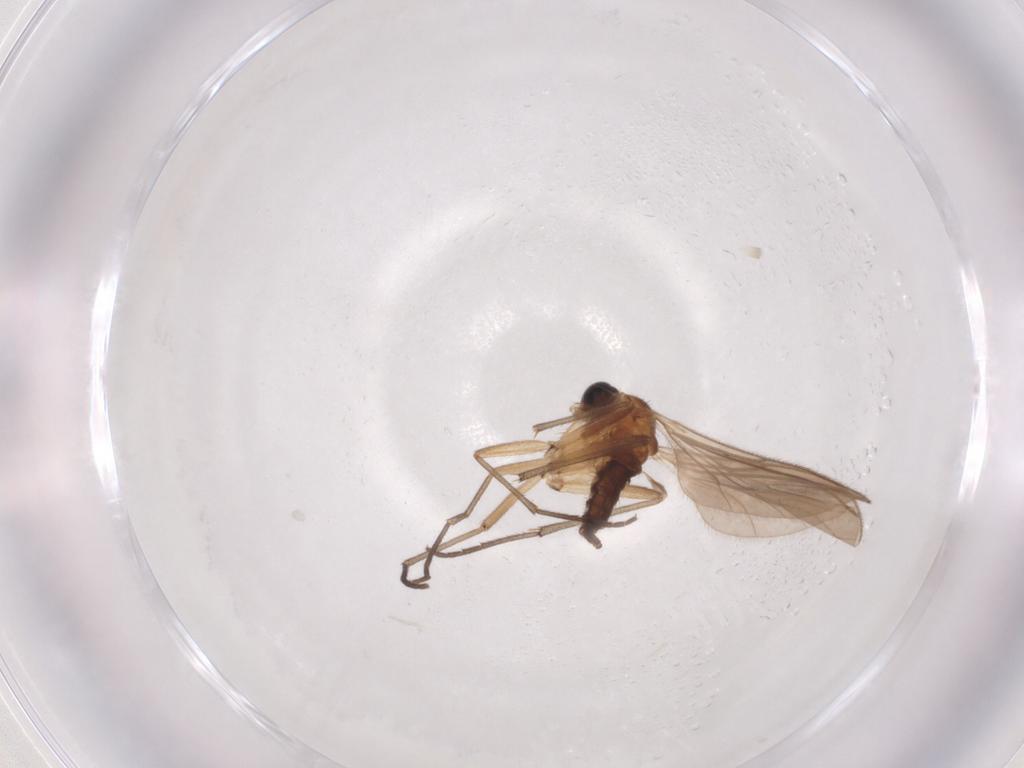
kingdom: Animalia
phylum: Arthropoda
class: Insecta
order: Diptera
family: Sciaridae
